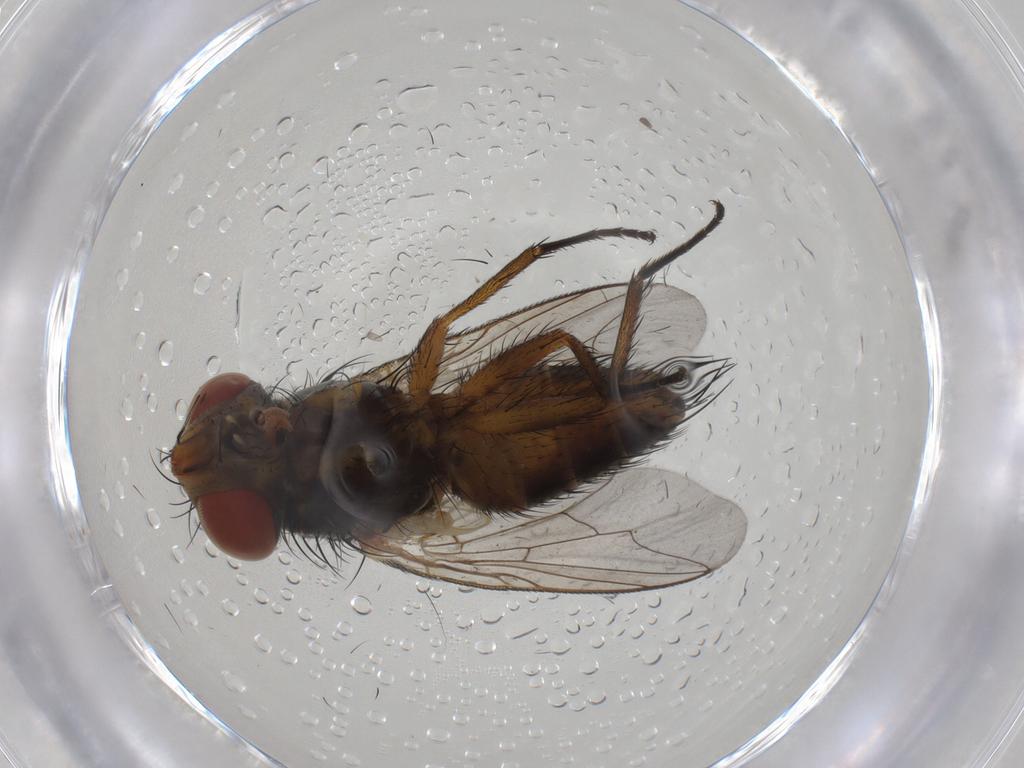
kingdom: Animalia
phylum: Arthropoda
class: Insecta
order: Diptera
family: Sarcophagidae
